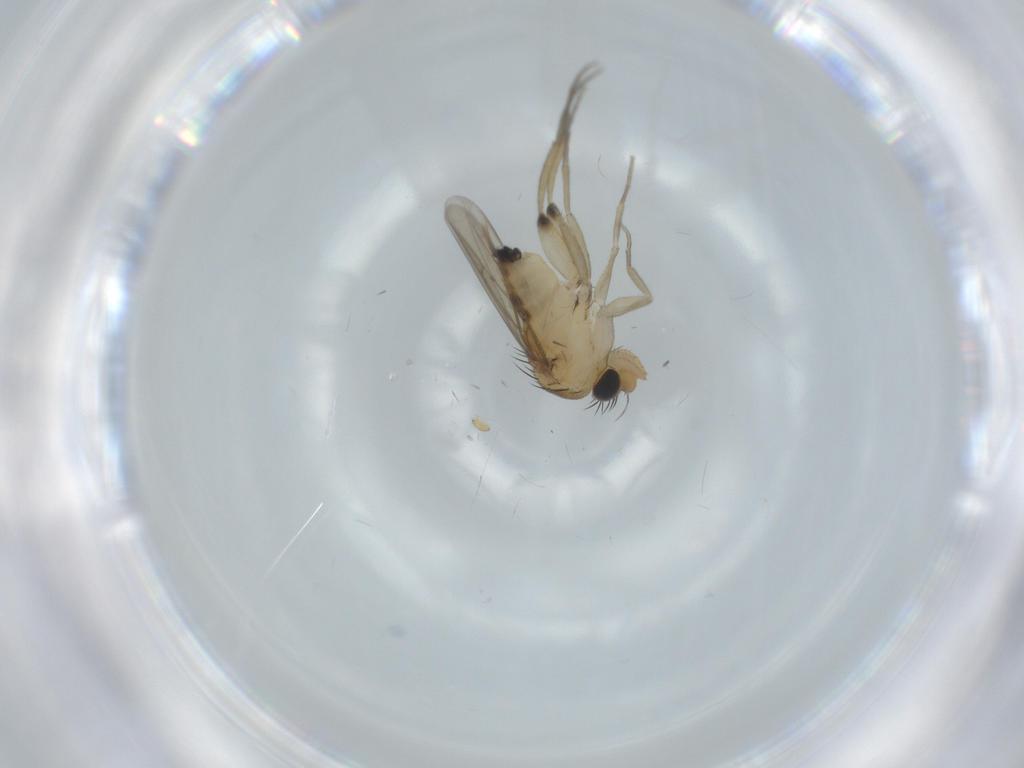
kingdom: Animalia
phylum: Arthropoda
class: Insecta
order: Diptera
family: Phoridae
